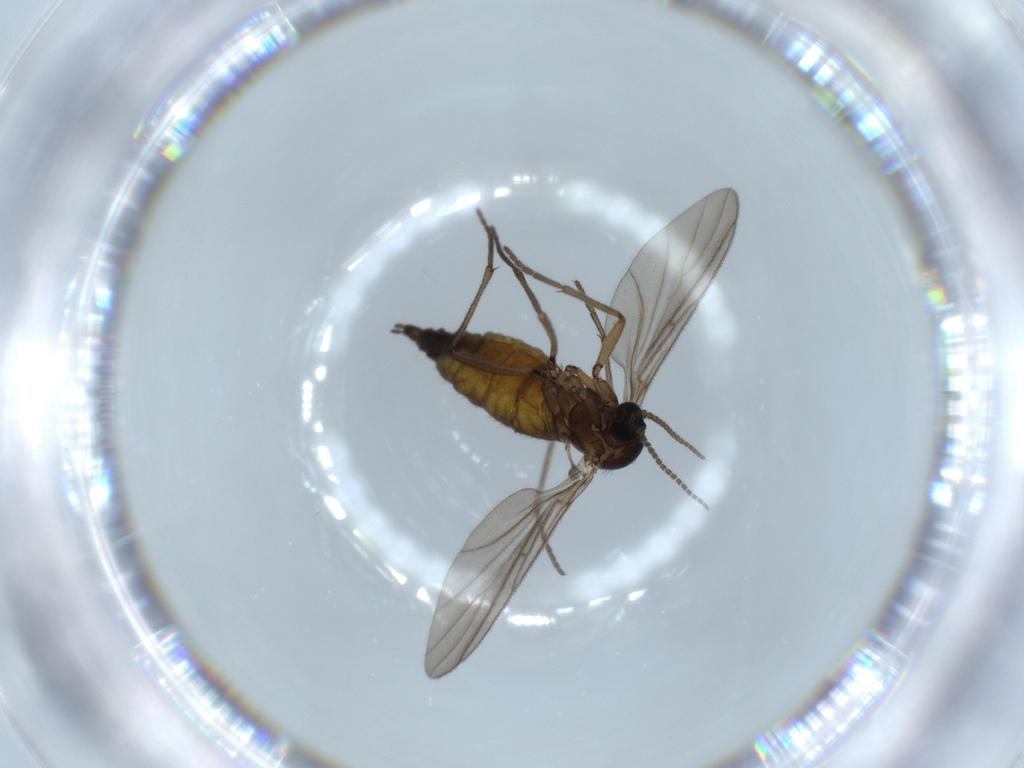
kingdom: Animalia
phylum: Arthropoda
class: Insecta
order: Diptera
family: Sciaridae
